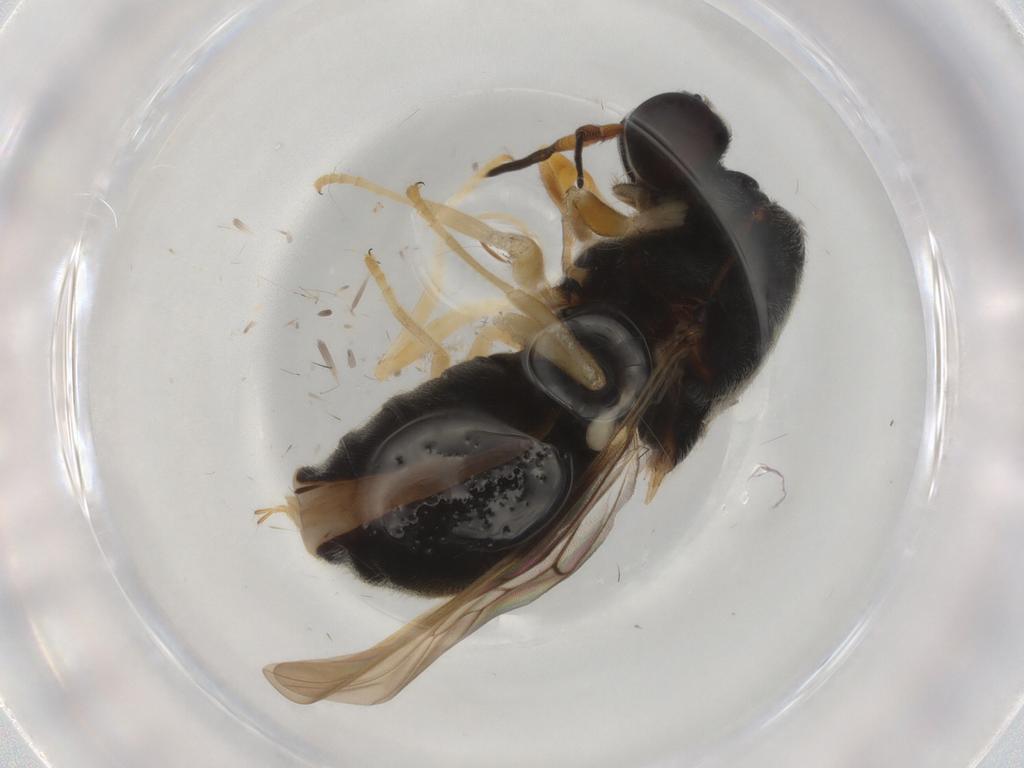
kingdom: Animalia
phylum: Arthropoda
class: Insecta
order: Diptera
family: Stratiomyidae
